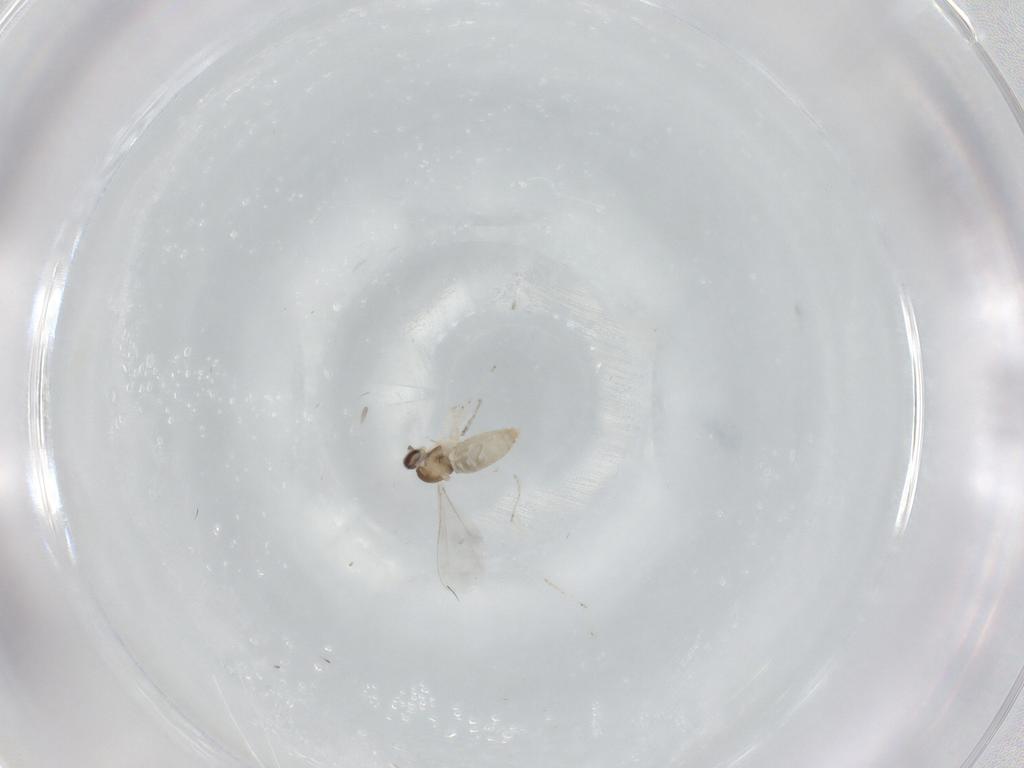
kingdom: Animalia
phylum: Arthropoda
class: Insecta
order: Diptera
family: Cecidomyiidae
